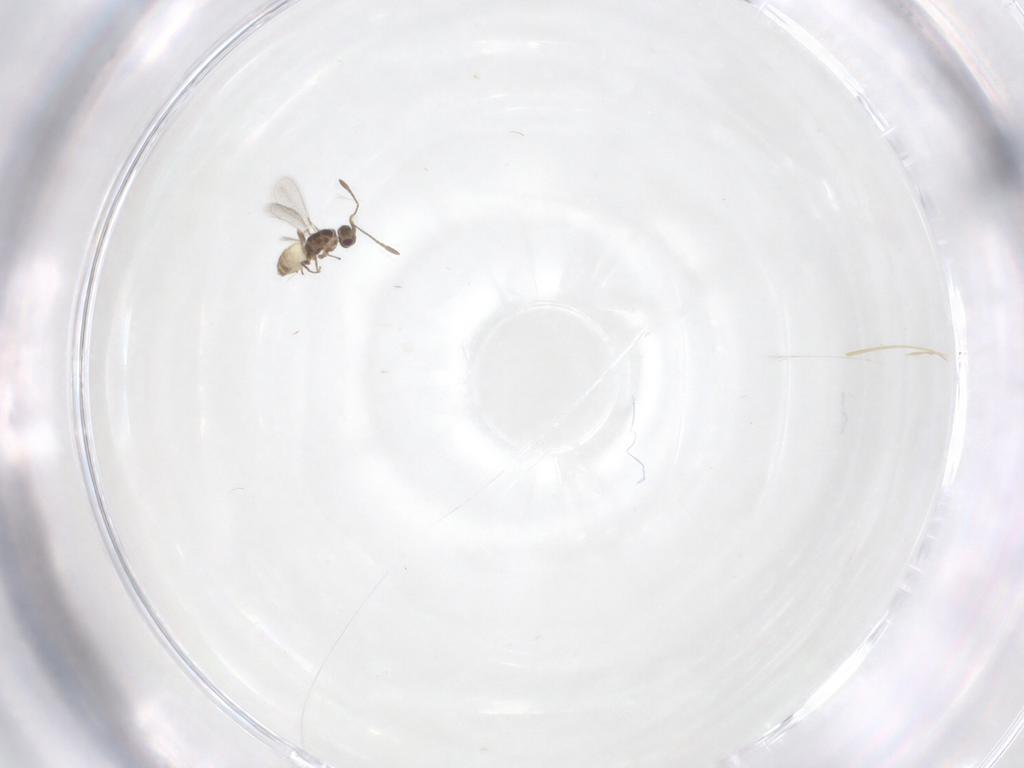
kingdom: Animalia
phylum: Arthropoda
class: Insecta
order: Hymenoptera
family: Mymaridae
